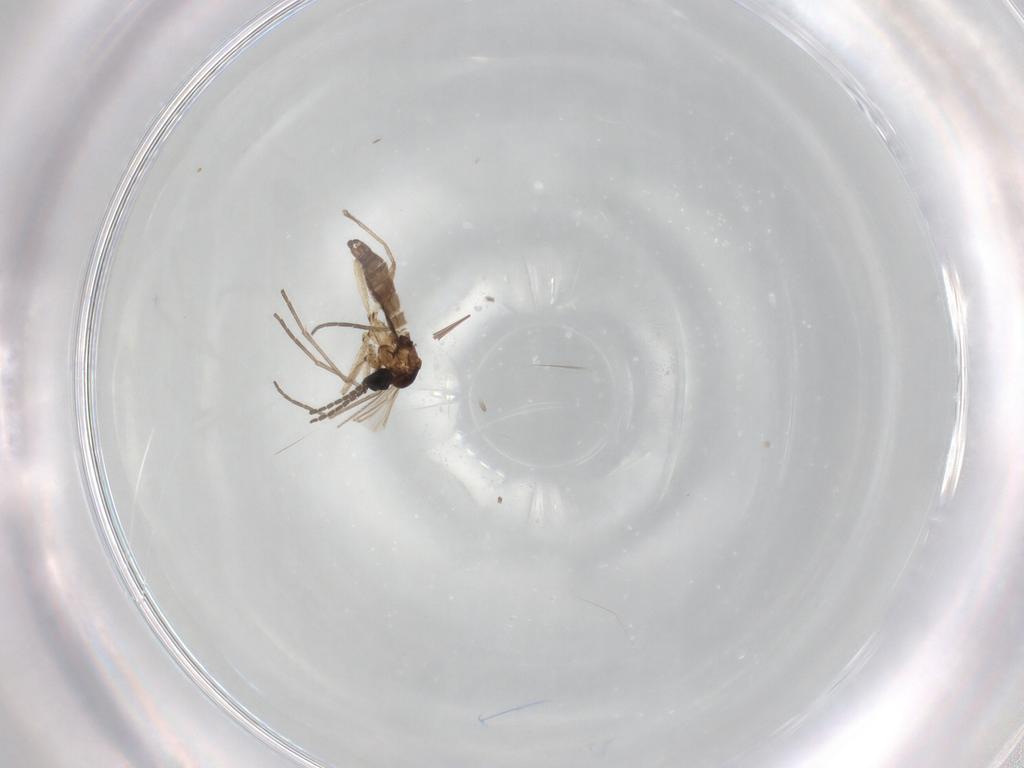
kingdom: Animalia
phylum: Arthropoda
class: Insecta
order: Diptera
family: Sciaridae
